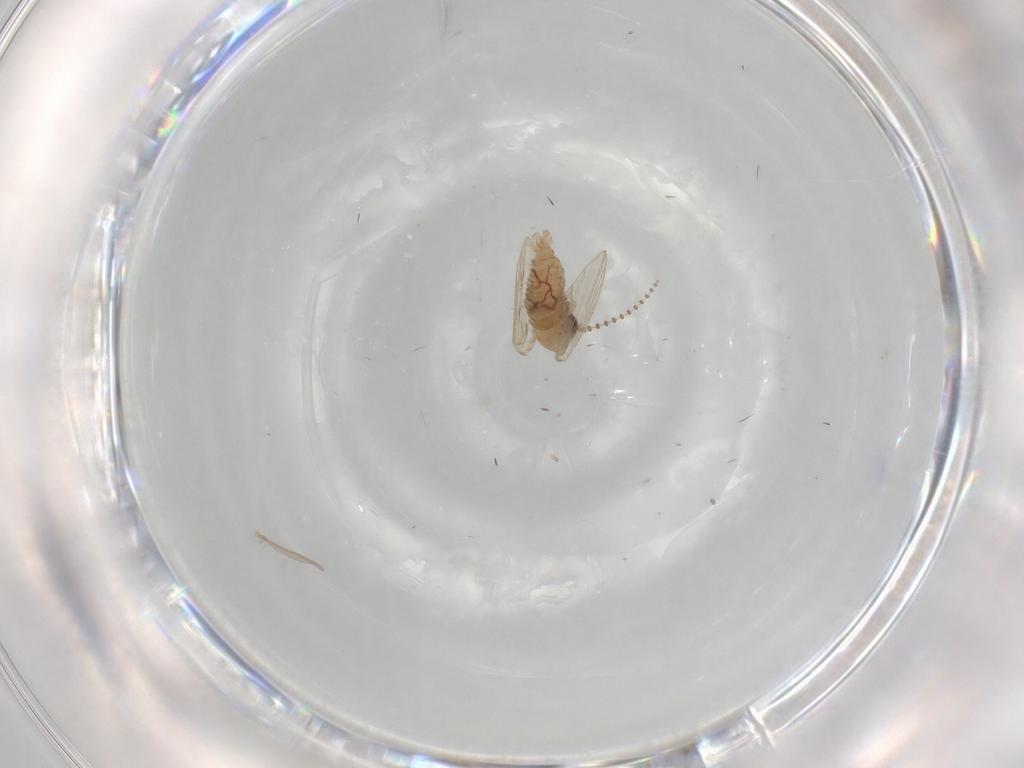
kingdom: Animalia
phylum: Arthropoda
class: Insecta
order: Diptera
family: Psychodidae
